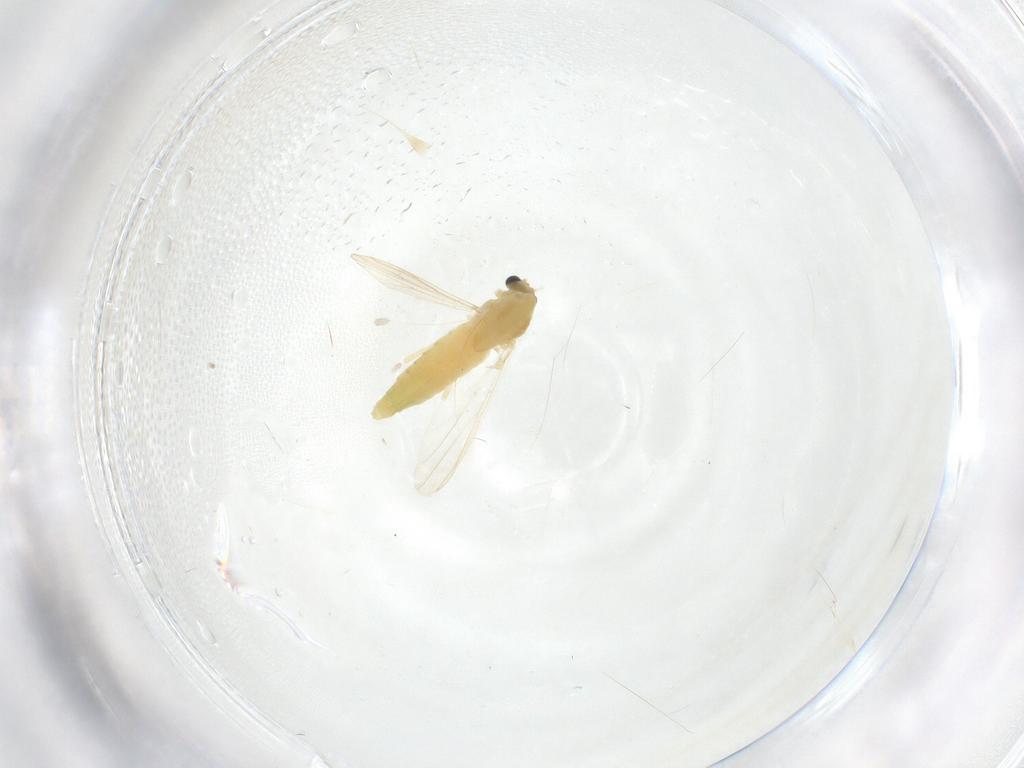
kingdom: Animalia
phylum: Arthropoda
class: Insecta
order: Diptera
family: Chironomidae
